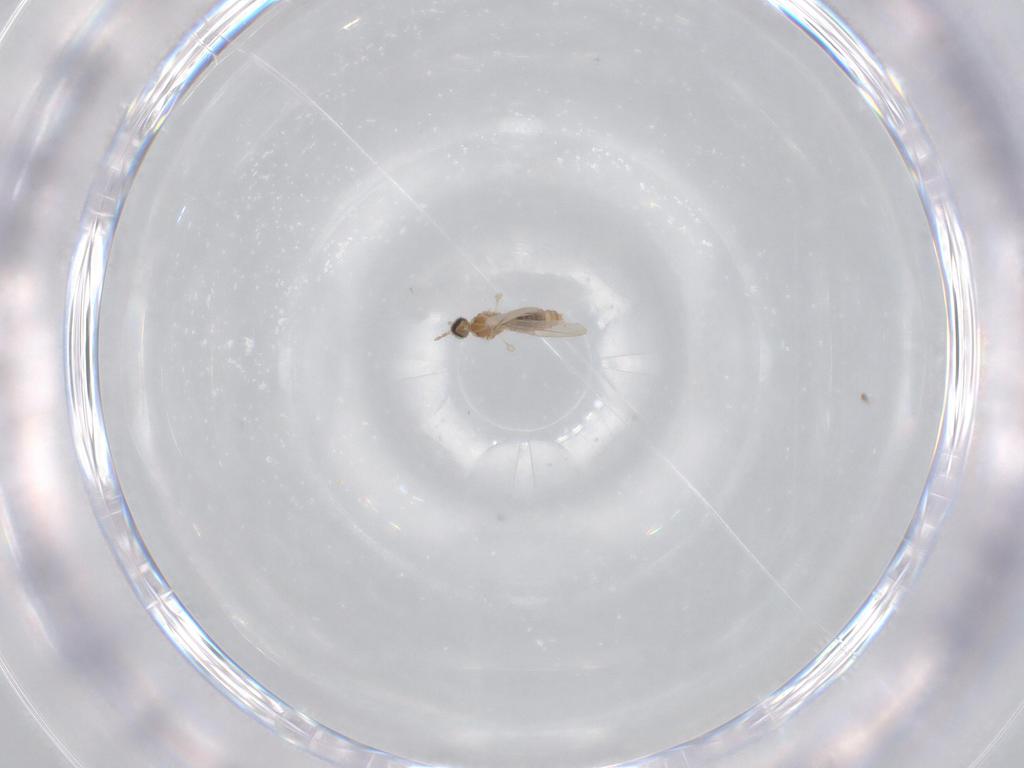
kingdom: Animalia
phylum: Arthropoda
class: Insecta
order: Diptera
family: Cecidomyiidae
